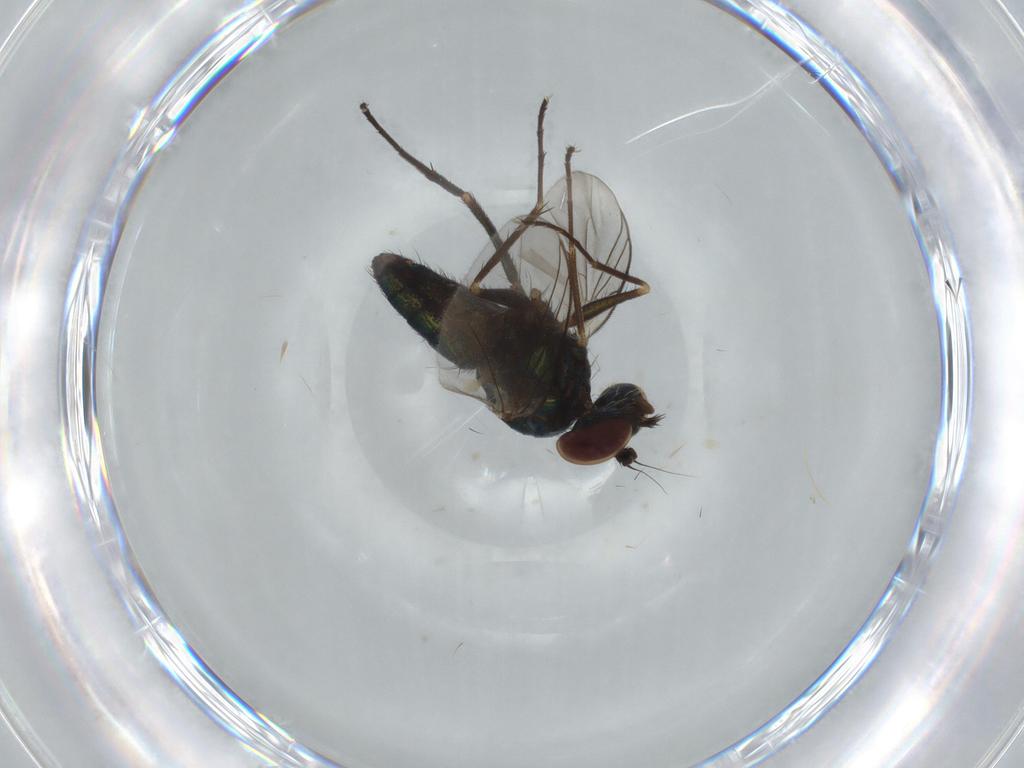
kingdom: Animalia
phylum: Arthropoda
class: Insecta
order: Diptera
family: Dolichopodidae
